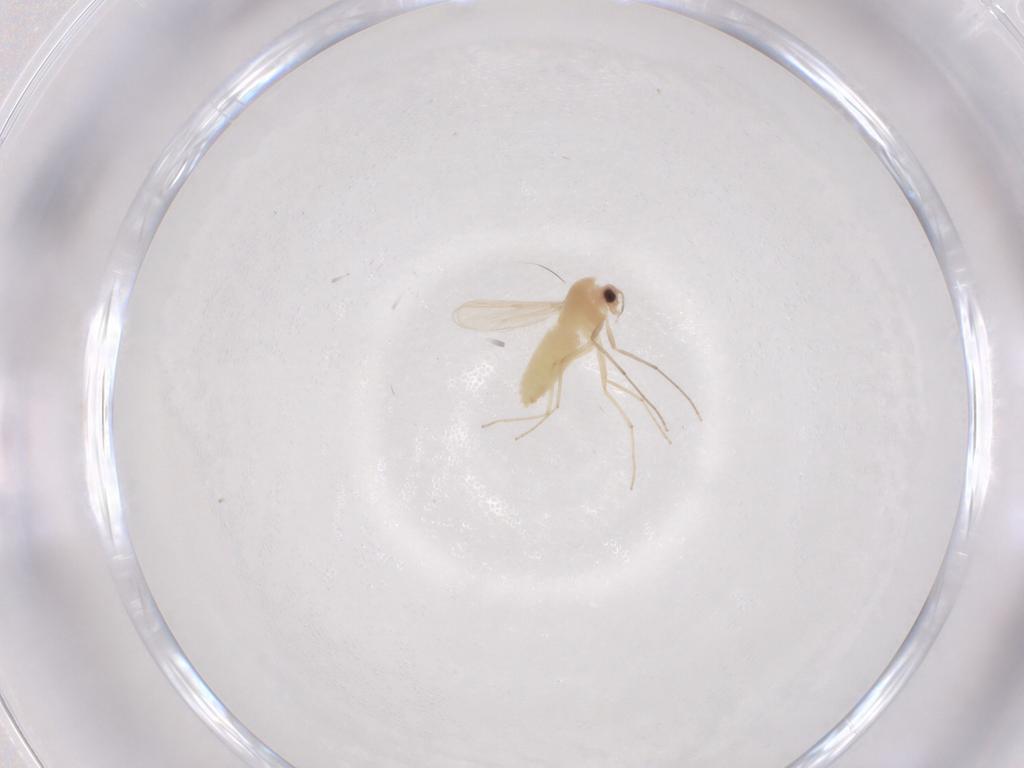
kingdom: Animalia
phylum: Arthropoda
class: Insecta
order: Diptera
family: Chironomidae
